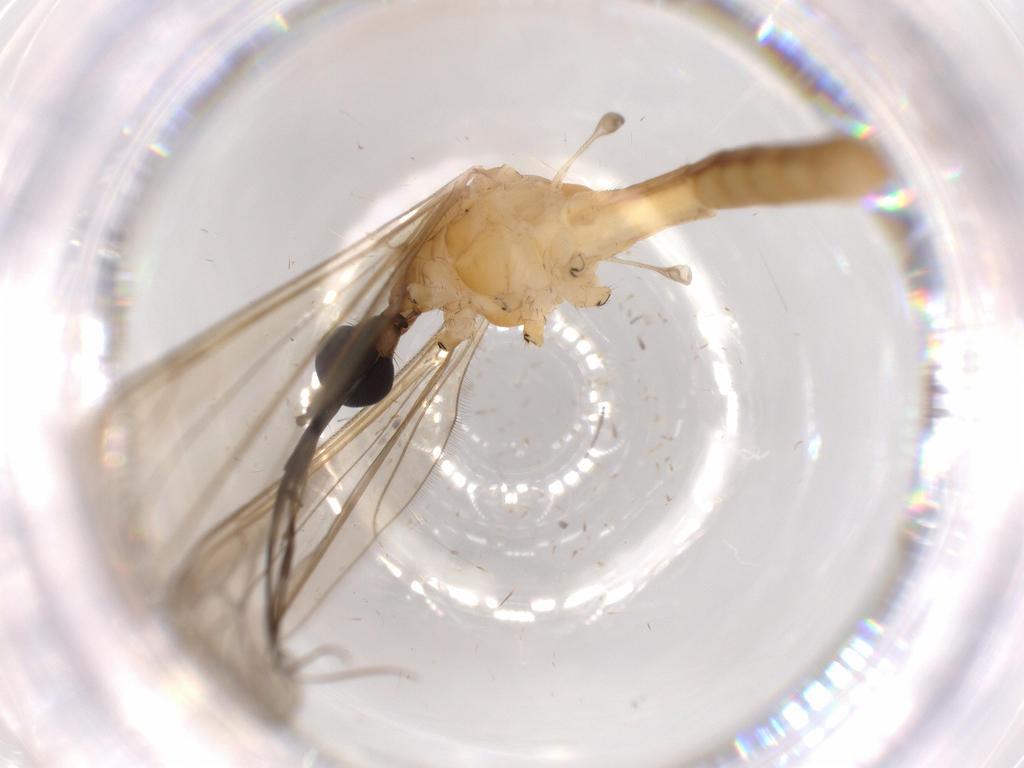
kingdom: Animalia
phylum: Arthropoda
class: Insecta
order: Diptera
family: Limoniidae
